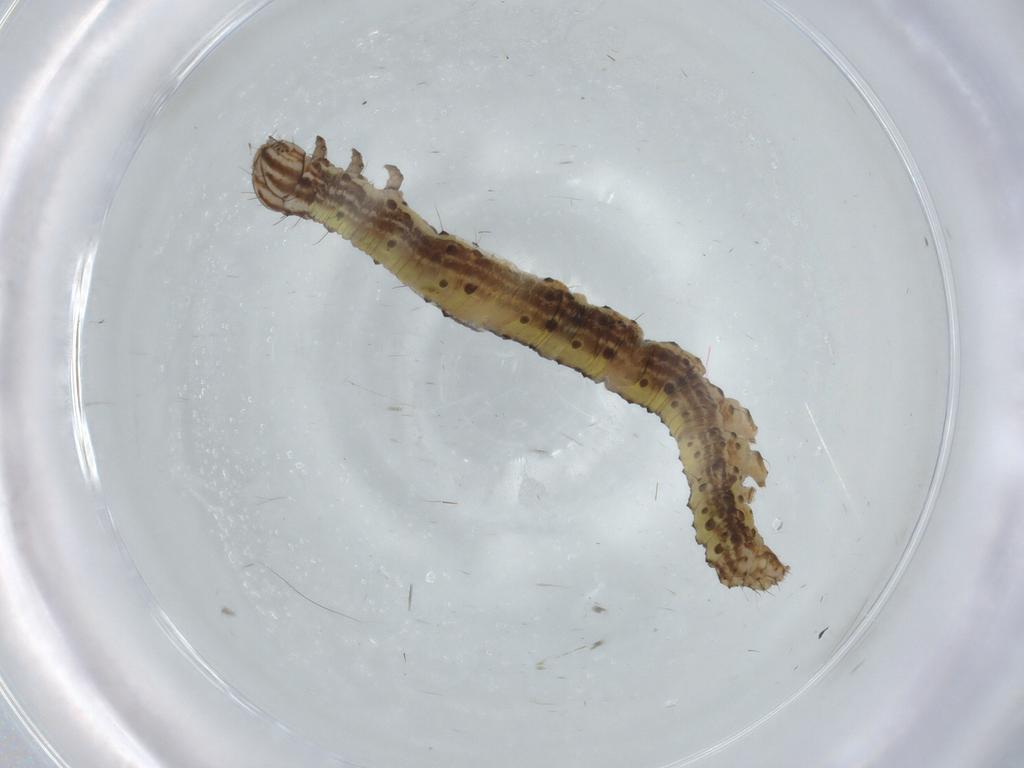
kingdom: Animalia
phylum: Arthropoda
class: Insecta
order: Lepidoptera
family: Erebidae
